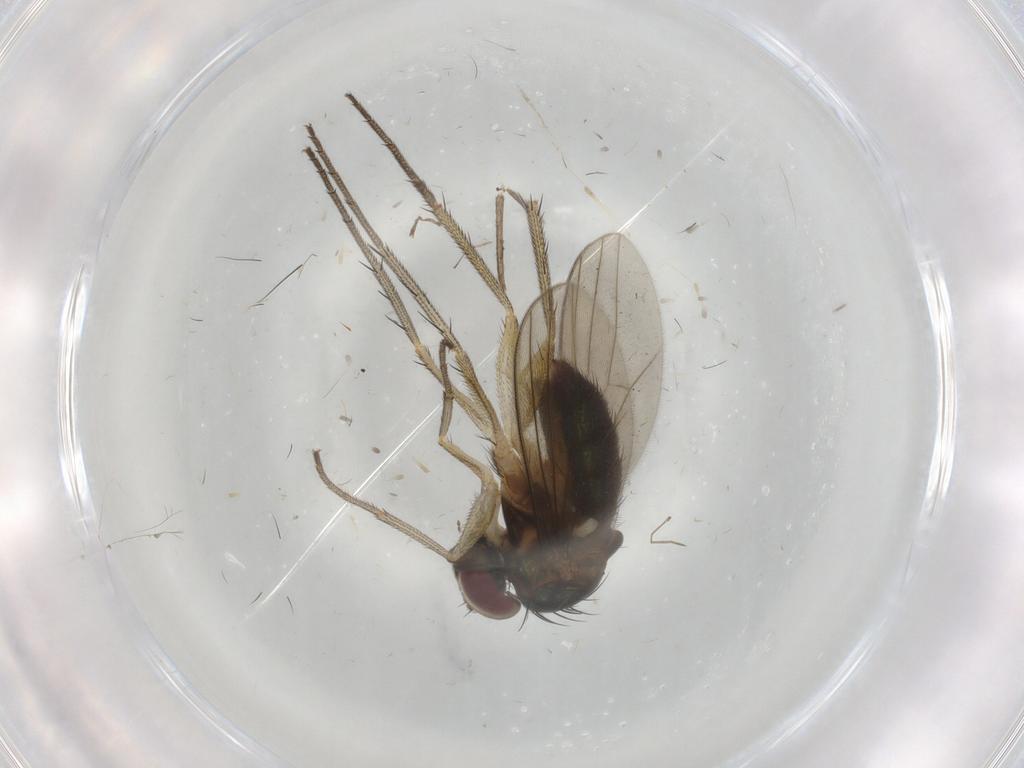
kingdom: Animalia
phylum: Arthropoda
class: Insecta
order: Diptera
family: Dolichopodidae
